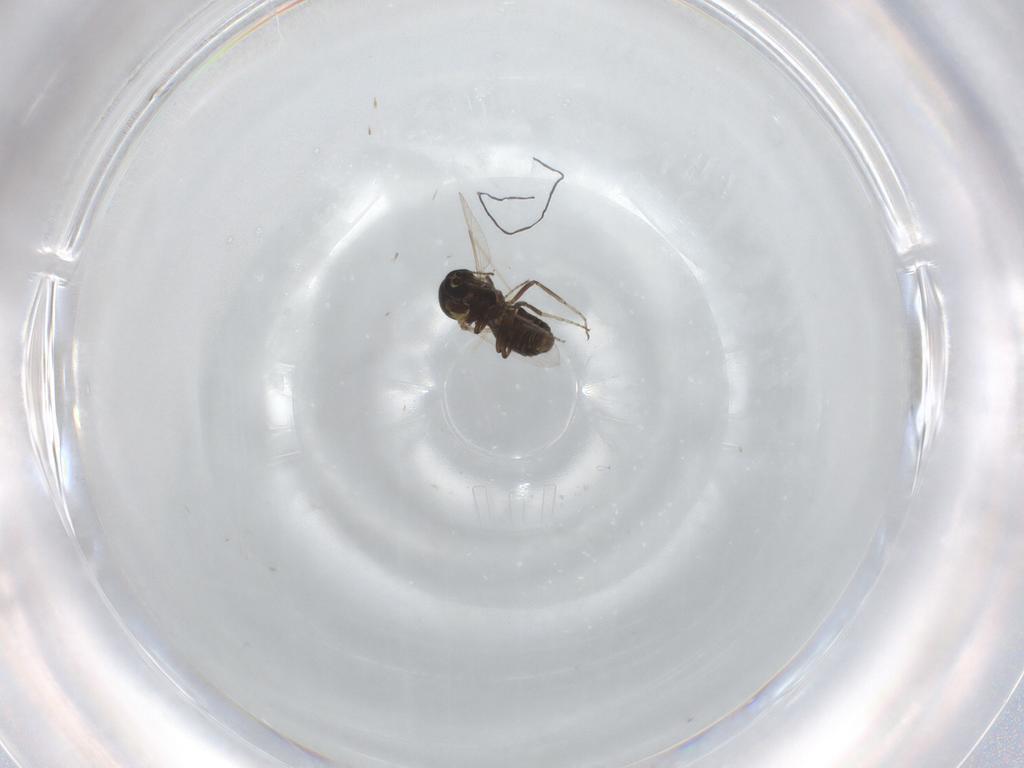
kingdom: Animalia
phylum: Arthropoda
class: Insecta
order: Diptera
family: Ceratopogonidae
